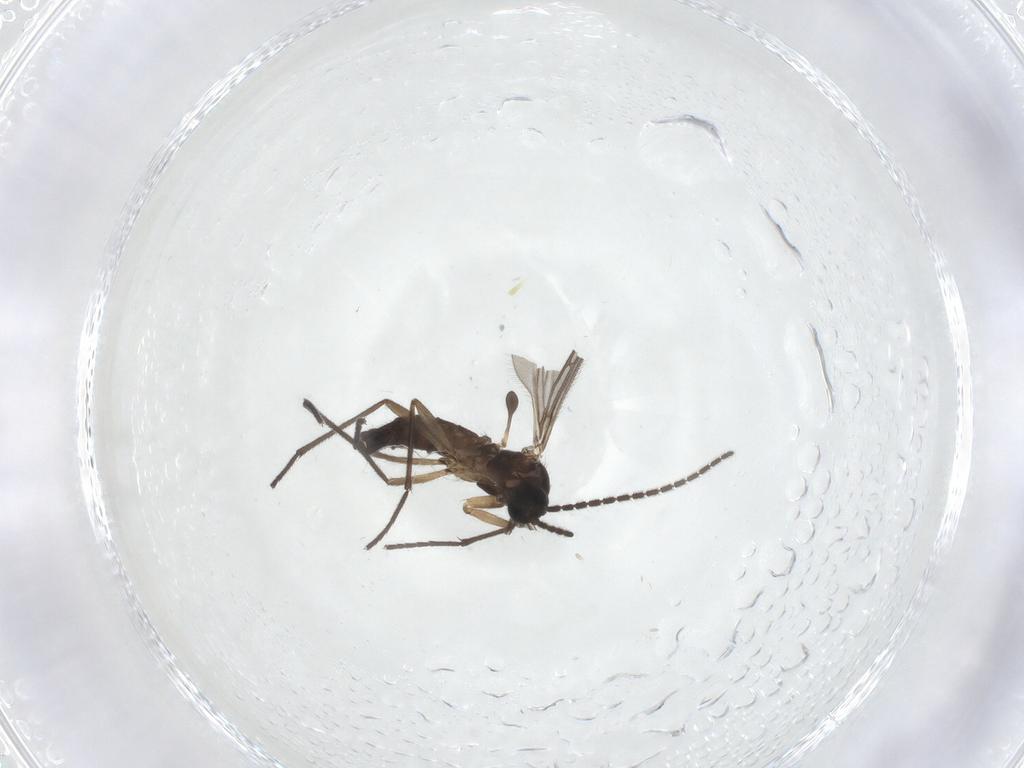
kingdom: Animalia
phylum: Arthropoda
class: Insecta
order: Diptera
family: Sciaridae
